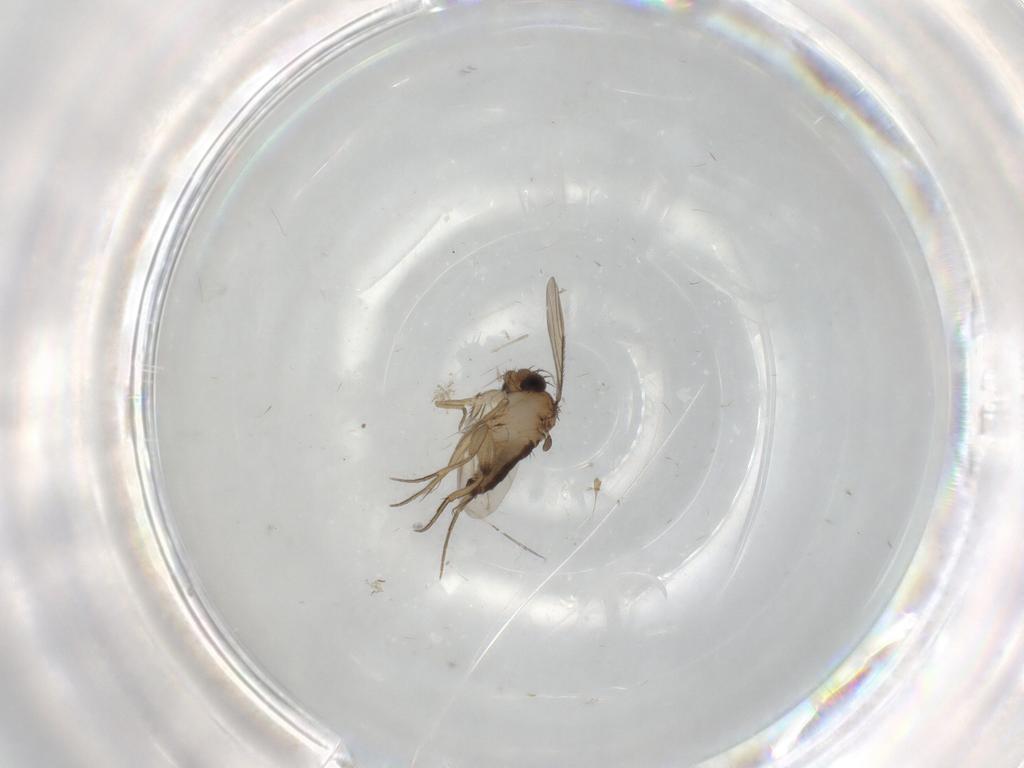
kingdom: Animalia
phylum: Arthropoda
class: Insecta
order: Diptera
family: Phoridae
